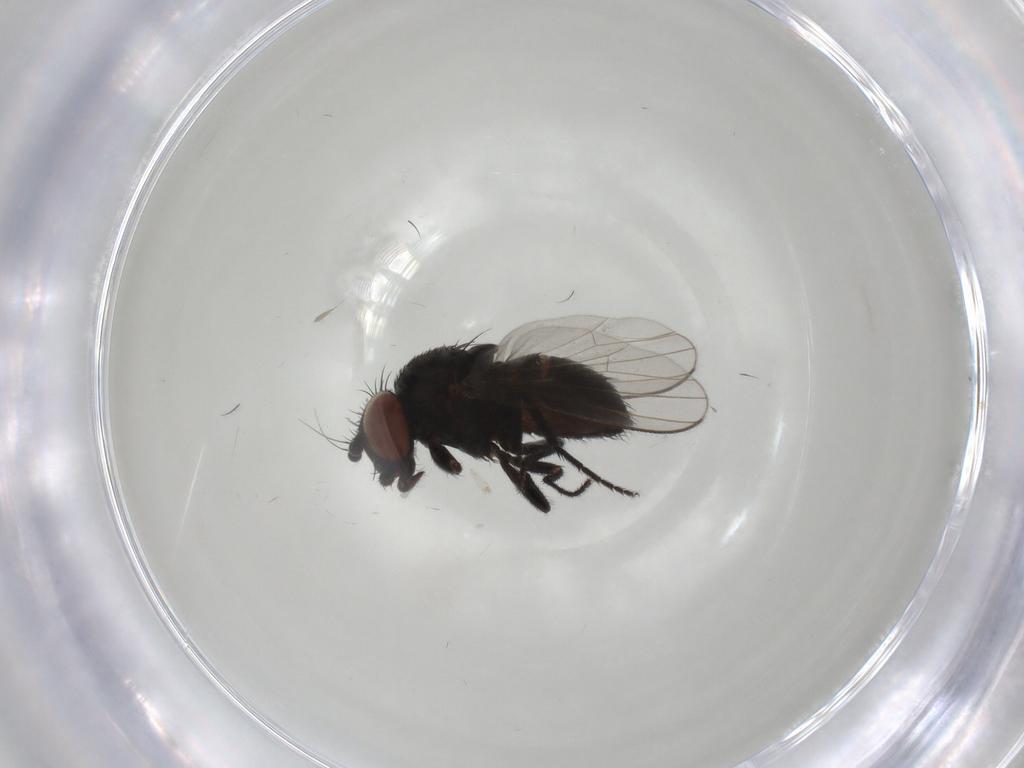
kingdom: Animalia
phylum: Arthropoda
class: Insecta
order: Diptera
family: Milichiidae
